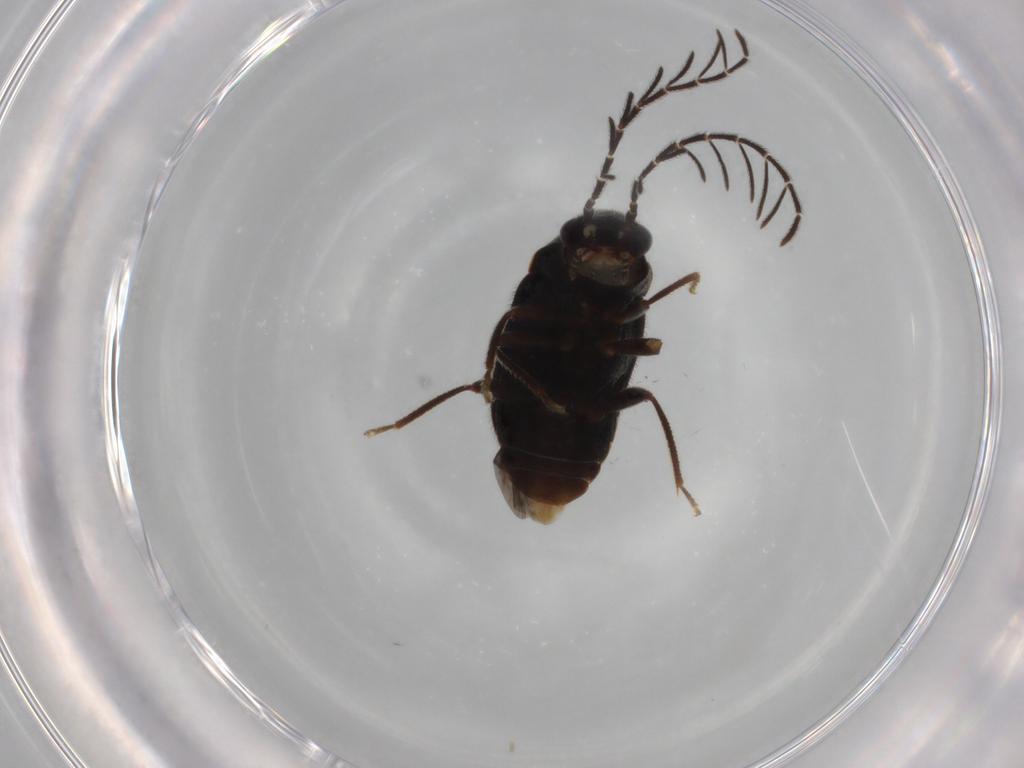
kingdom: Animalia
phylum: Arthropoda
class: Insecta
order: Coleoptera
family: Ptilodactylidae
